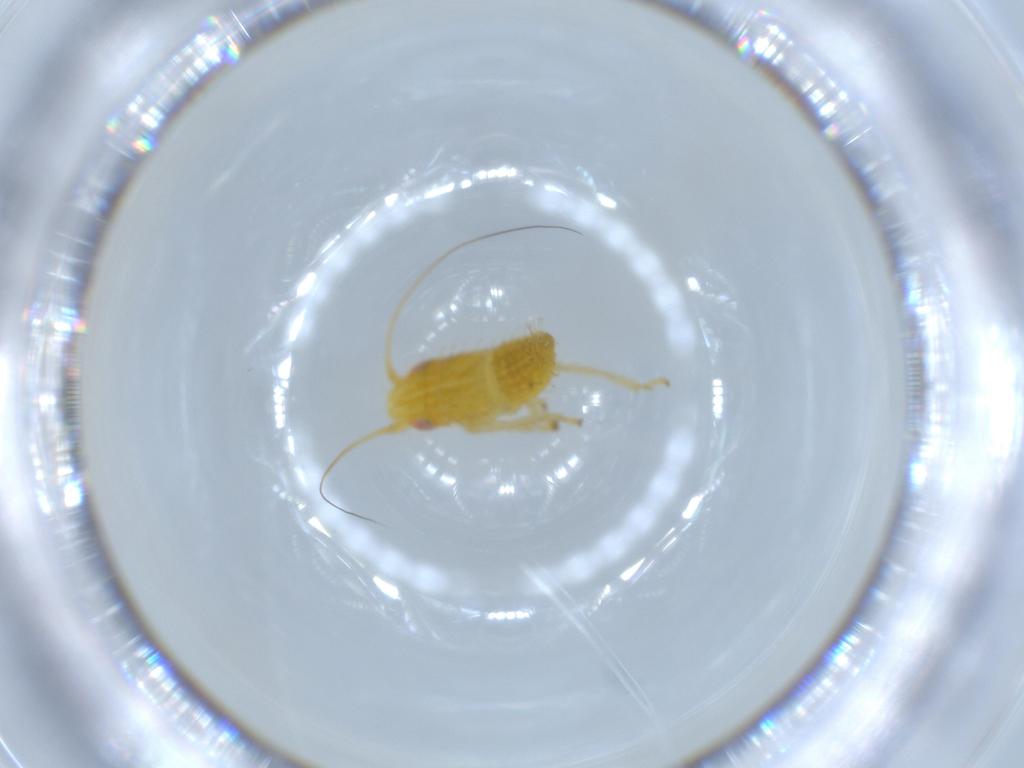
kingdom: Animalia
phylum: Arthropoda
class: Insecta
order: Hemiptera
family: Cicadellidae
